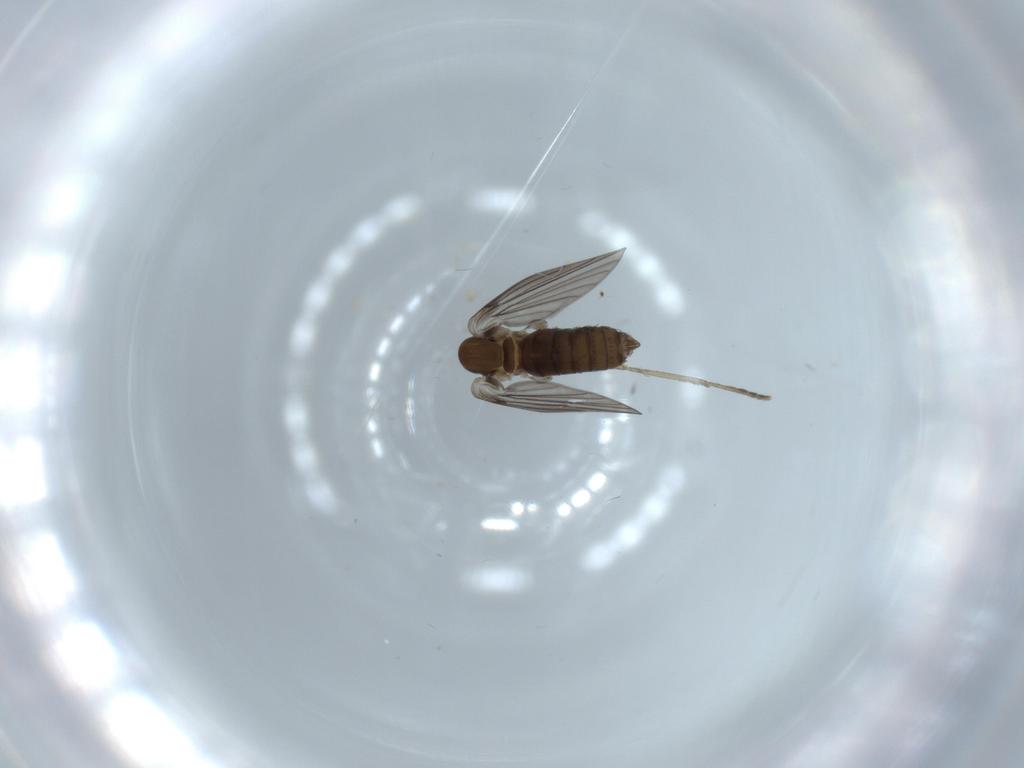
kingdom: Animalia
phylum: Arthropoda
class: Insecta
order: Diptera
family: Psychodidae
